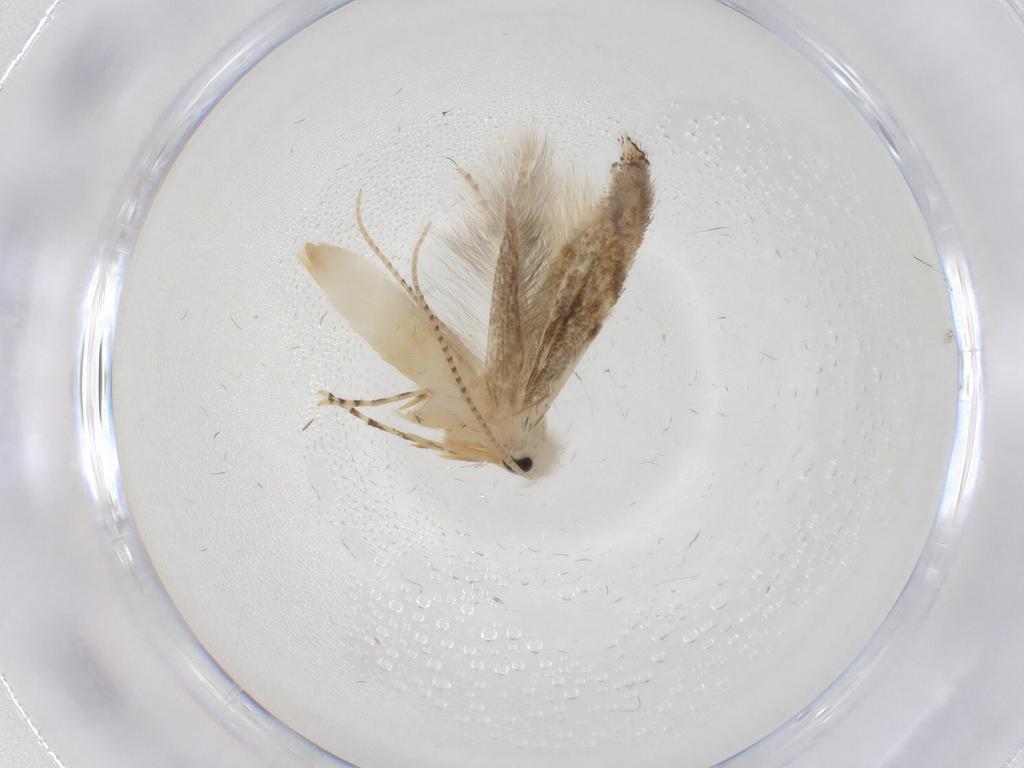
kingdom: Animalia
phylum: Arthropoda
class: Insecta
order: Lepidoptera
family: Bucculatricidae
